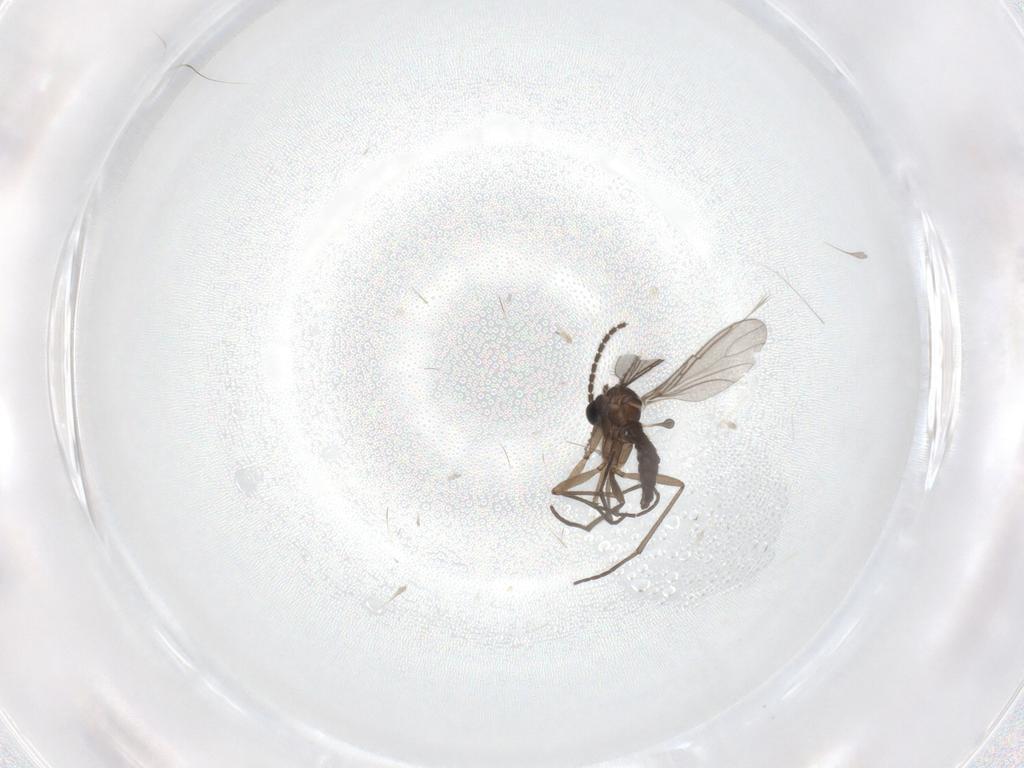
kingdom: Animalia
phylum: Arthropoda
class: Insecta
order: Diptera
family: Sciaridae
